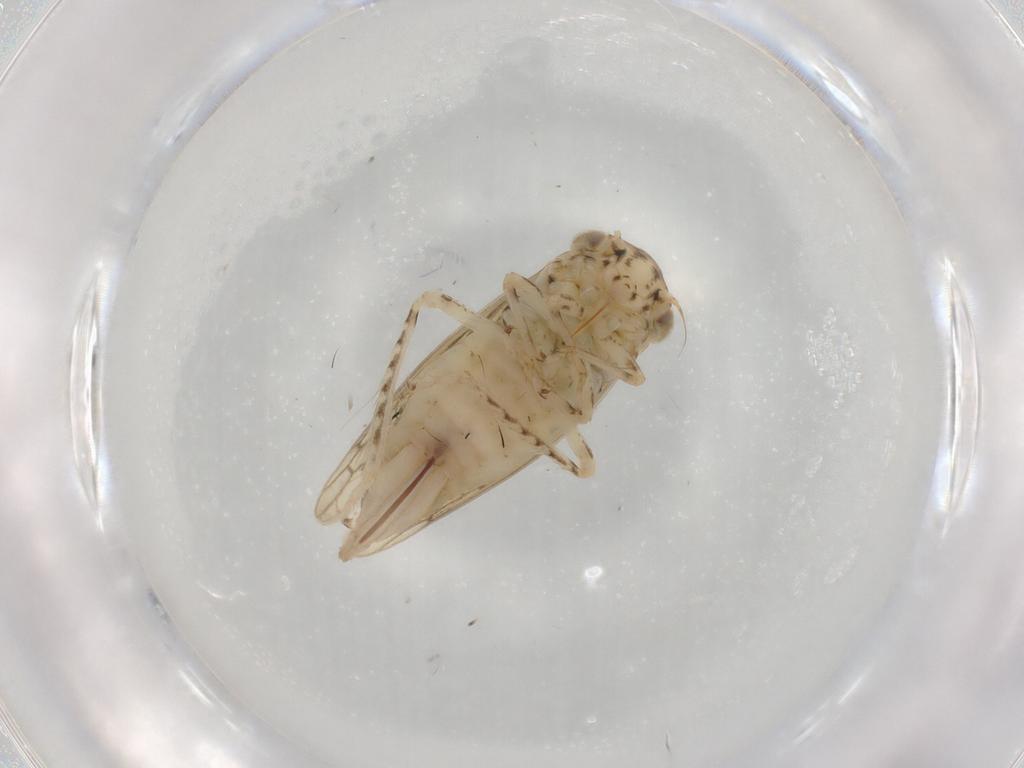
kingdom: Animalia
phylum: Arthropoda
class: Insecta
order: Hemiptera
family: Cicadellidae
